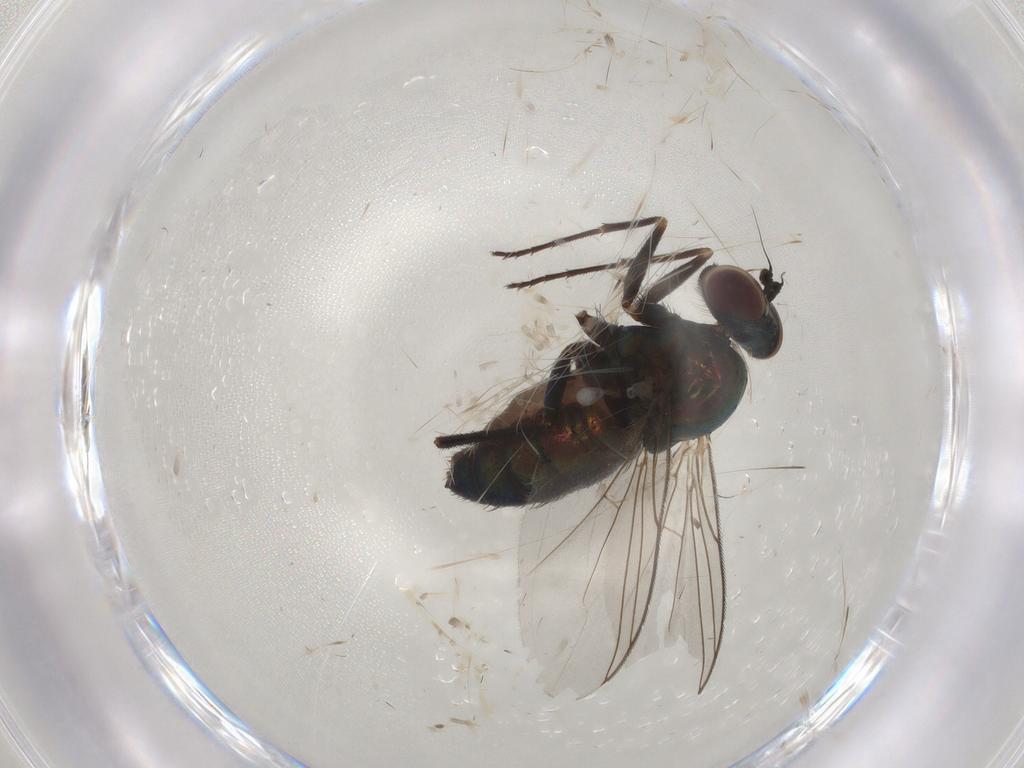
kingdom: Animalia
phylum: Arthropoda
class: Insecta
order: Diptera
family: Dolichopodidae
